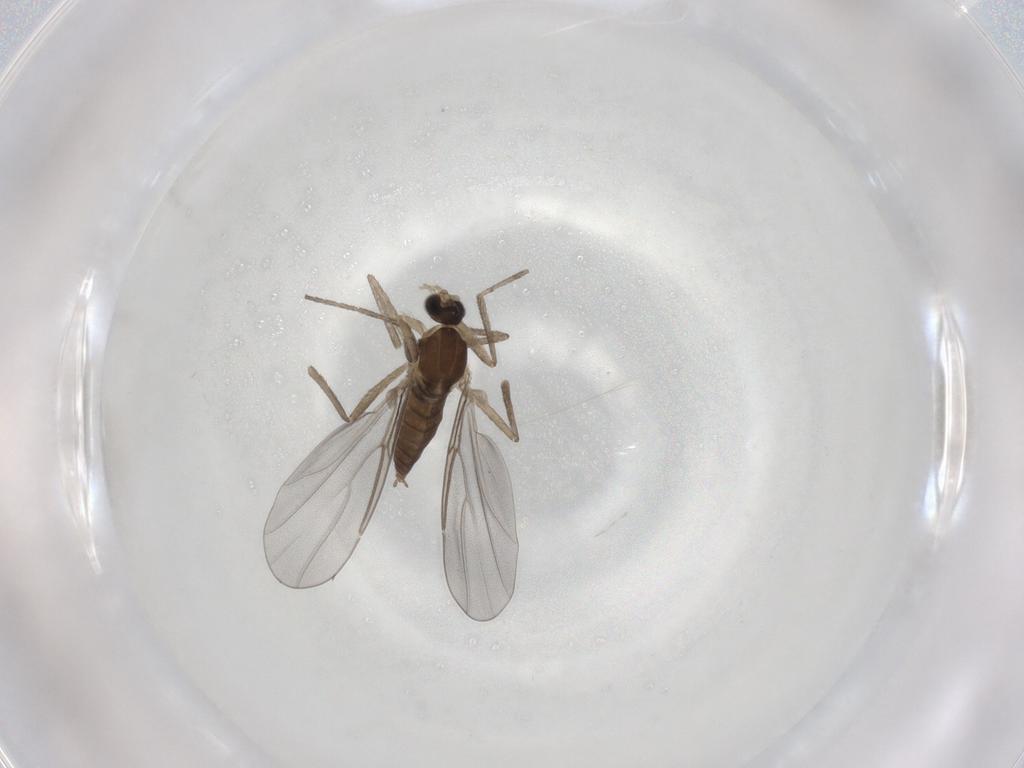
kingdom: Animalia
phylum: Arthropoda
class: Insecta
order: Diptera
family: Cecidomyiidae
